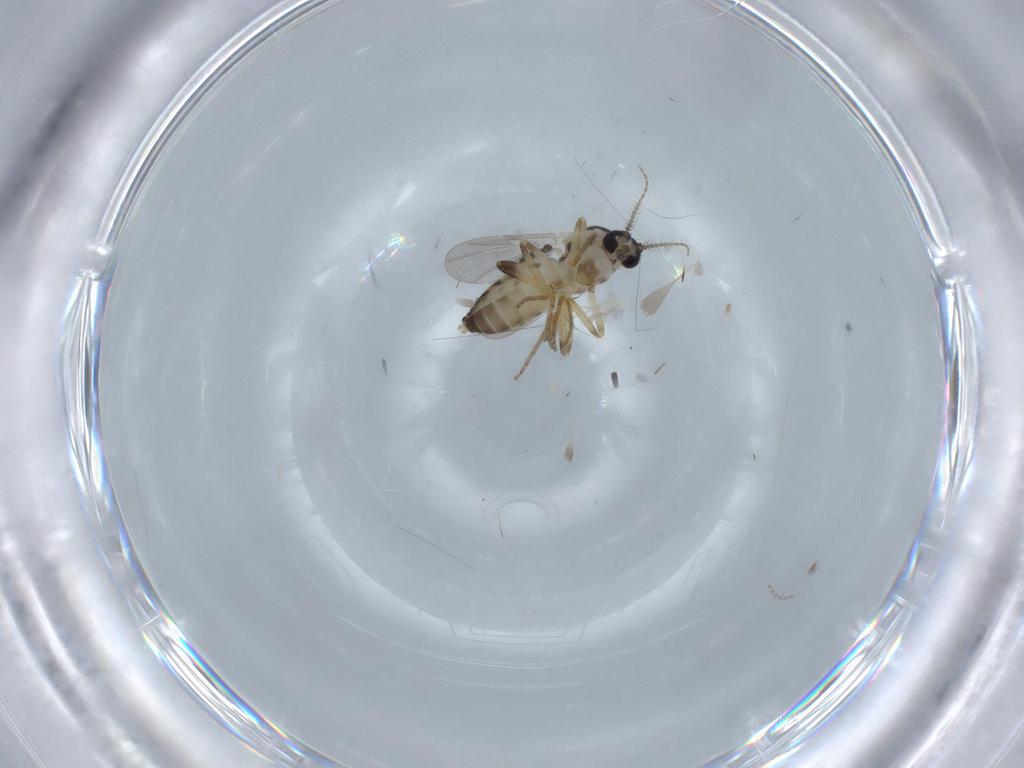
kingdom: Animalia
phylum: Arthropoda
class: Insecta
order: Diptera
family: Ceratopogonidae
